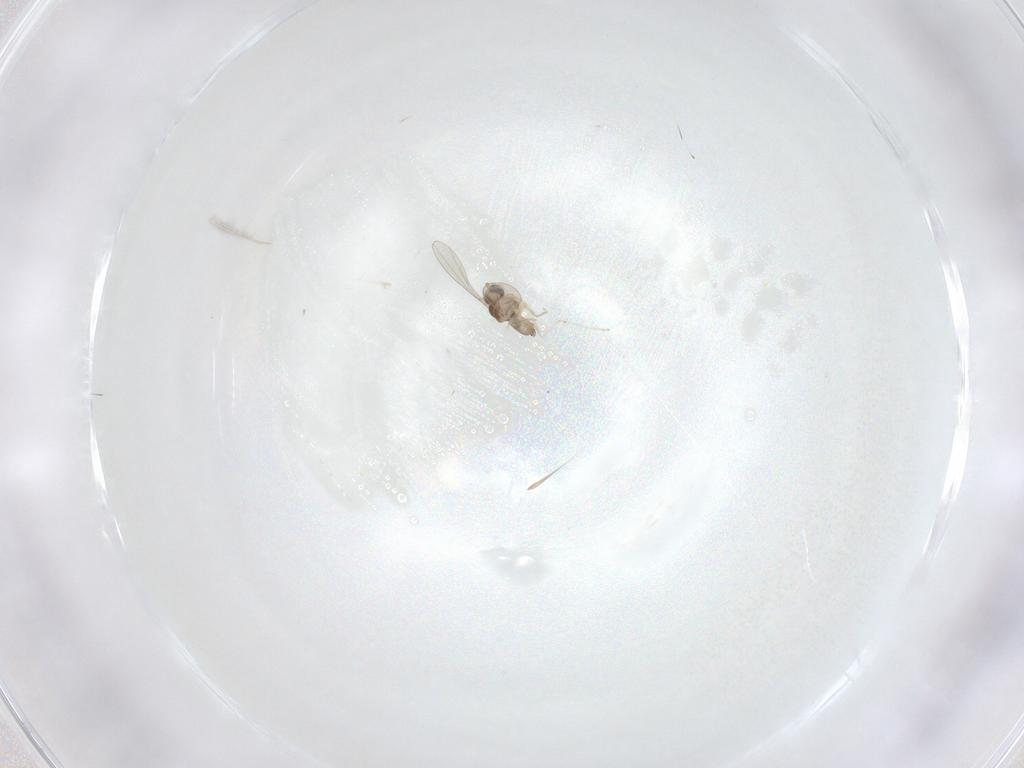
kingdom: Animalia
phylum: Arthropoda
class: Insecta
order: Diptera
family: Cecidomyiidae
